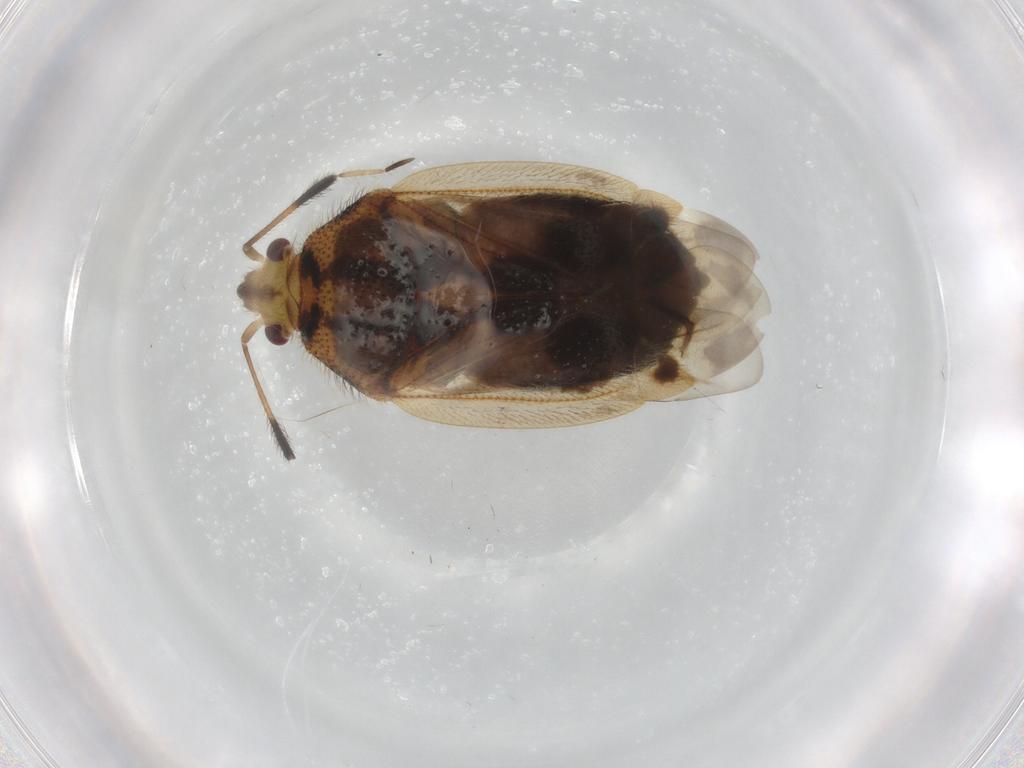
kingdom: Animalia
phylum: Arthropoda
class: Insecta
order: Hemiptera
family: Miridae
